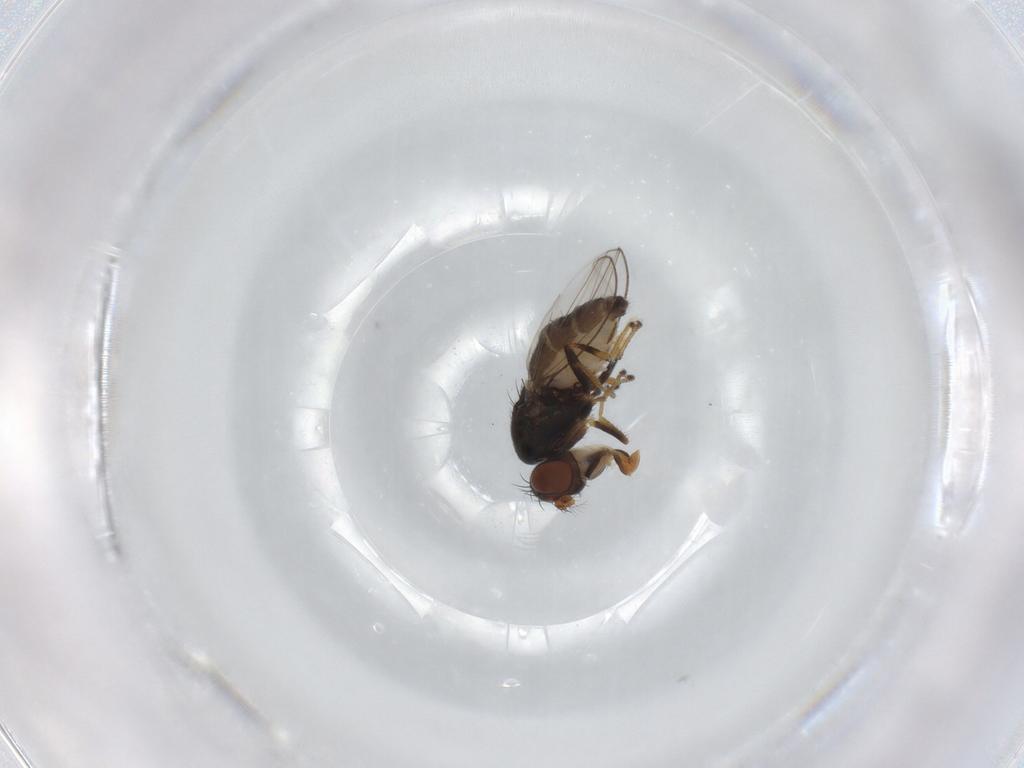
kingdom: Animalia
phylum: Arthropoda
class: Insecta
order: Diptera
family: Ephydridae
